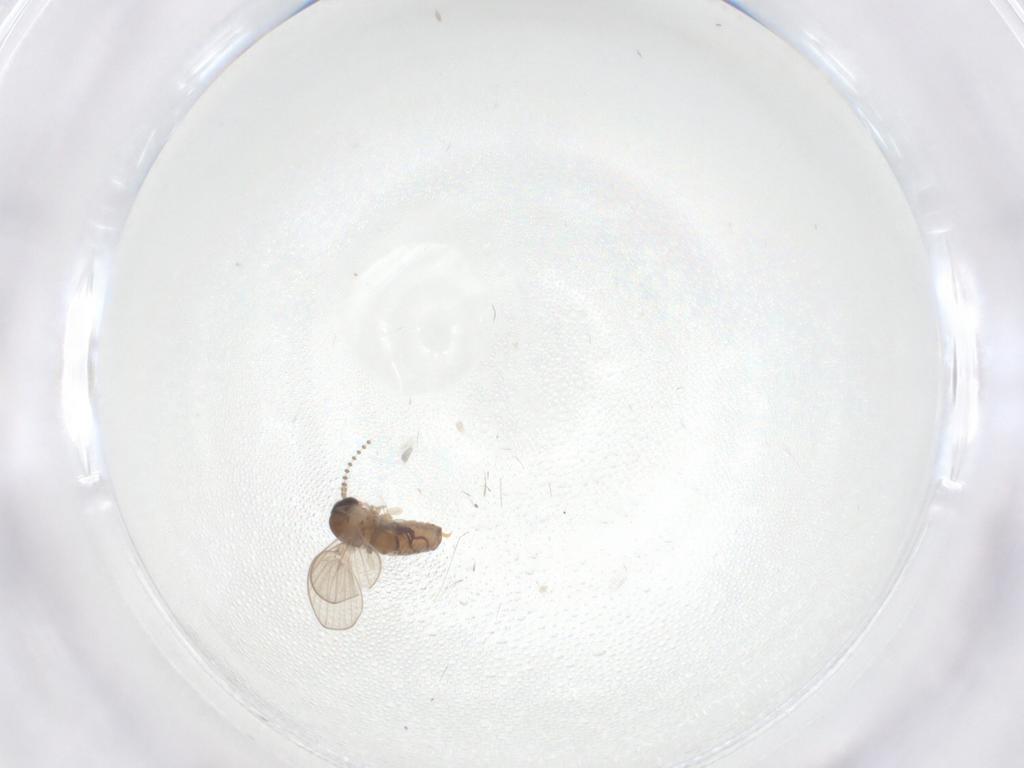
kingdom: Animalia
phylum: Arthropoda
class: Insecta
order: Diptera
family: Psychodidae
